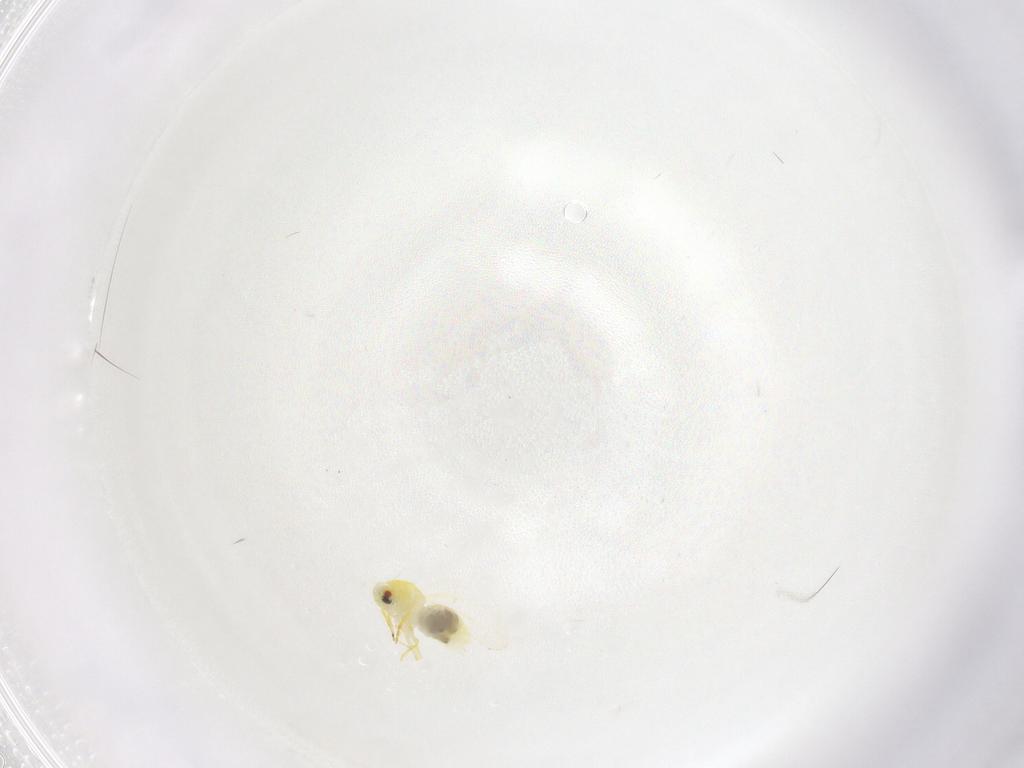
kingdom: Animalia
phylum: Arthropoda
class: Insecta
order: Hemiptera
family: Aleyrodidae
